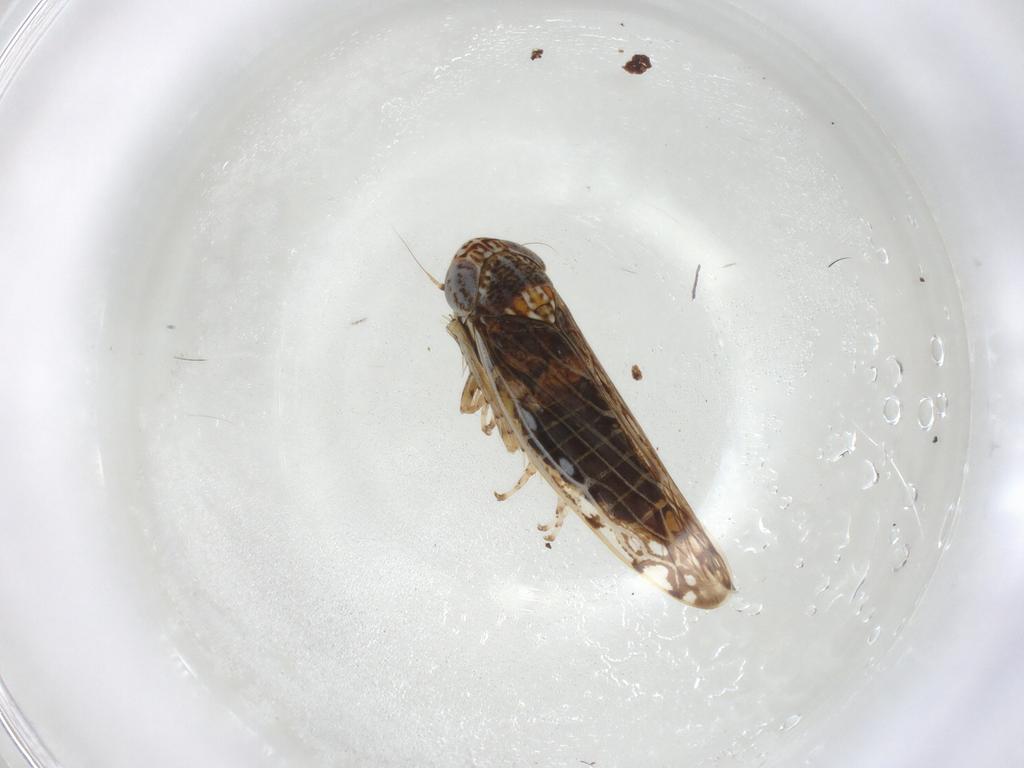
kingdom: Animalia
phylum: Arthropoda
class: Insecta
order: Hemiptera
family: Cicadellidae
